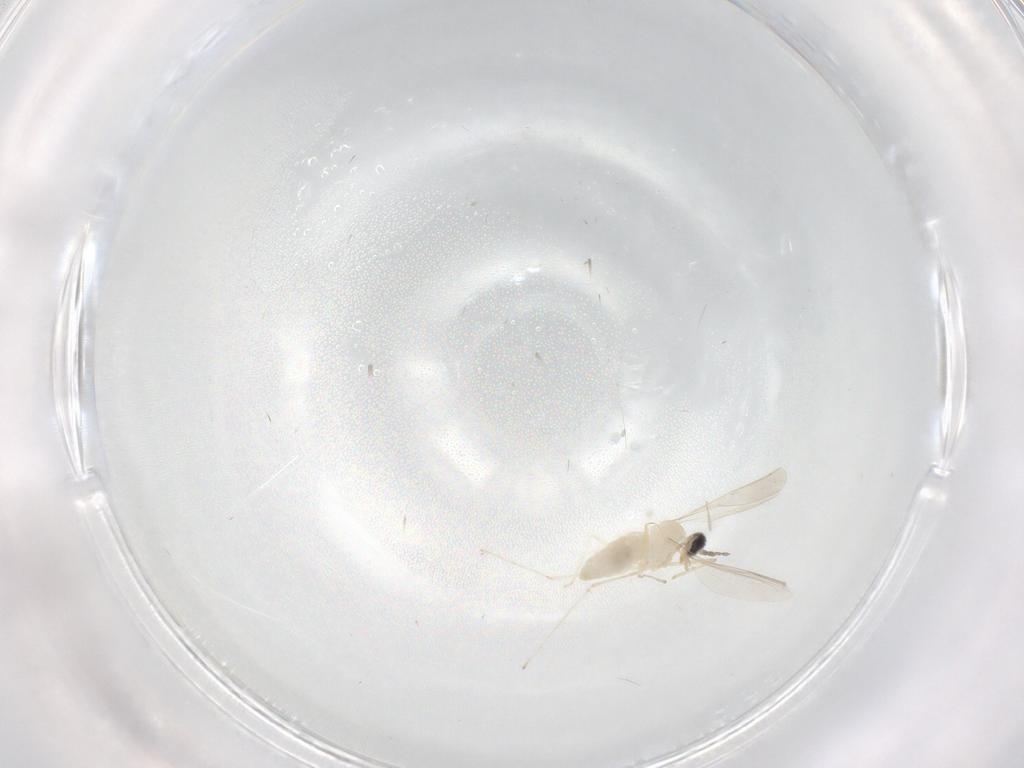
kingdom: Animalia
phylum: Arthropoda
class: Insecta
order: Diptera
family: Cecidomyiidae
